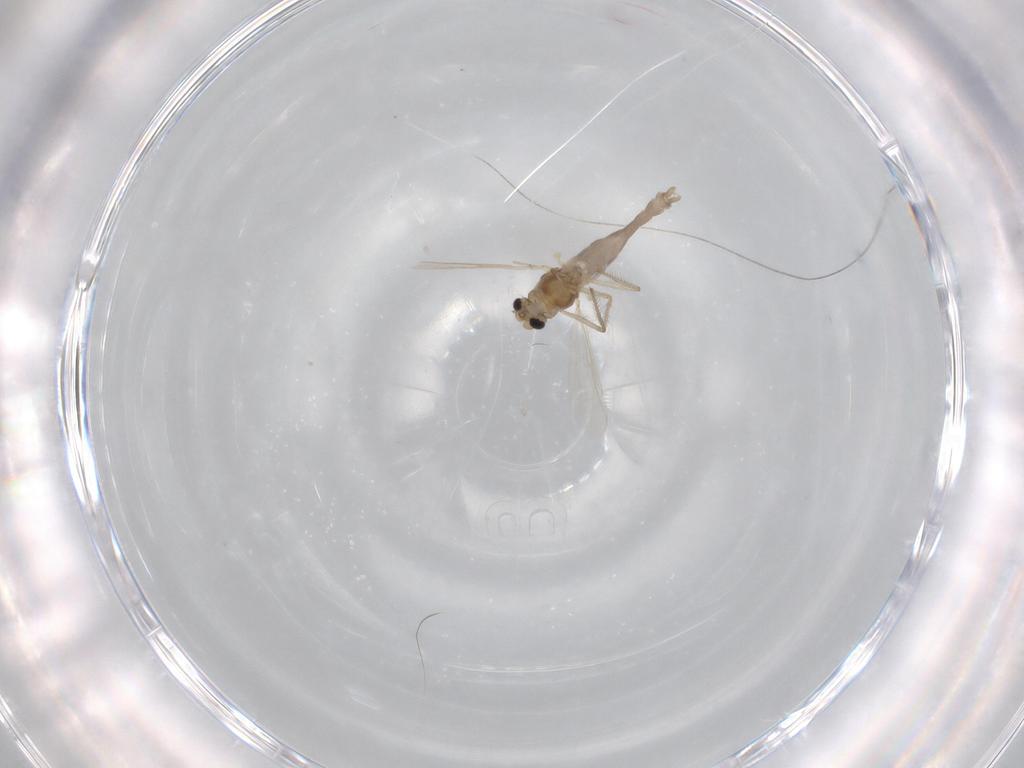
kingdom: Animalia
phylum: Arthropoda
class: Insecta
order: Diptera
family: Chironomidae
